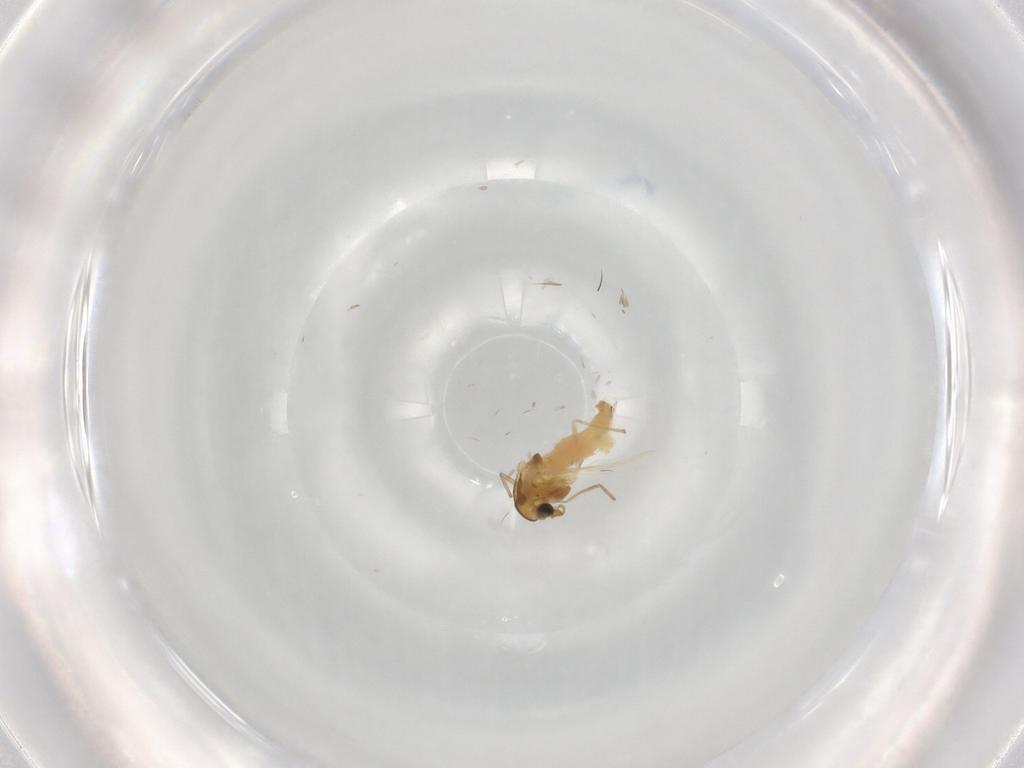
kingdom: Animalia
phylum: Arthropoda
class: Insecta
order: Diptera
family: Chironomidae
